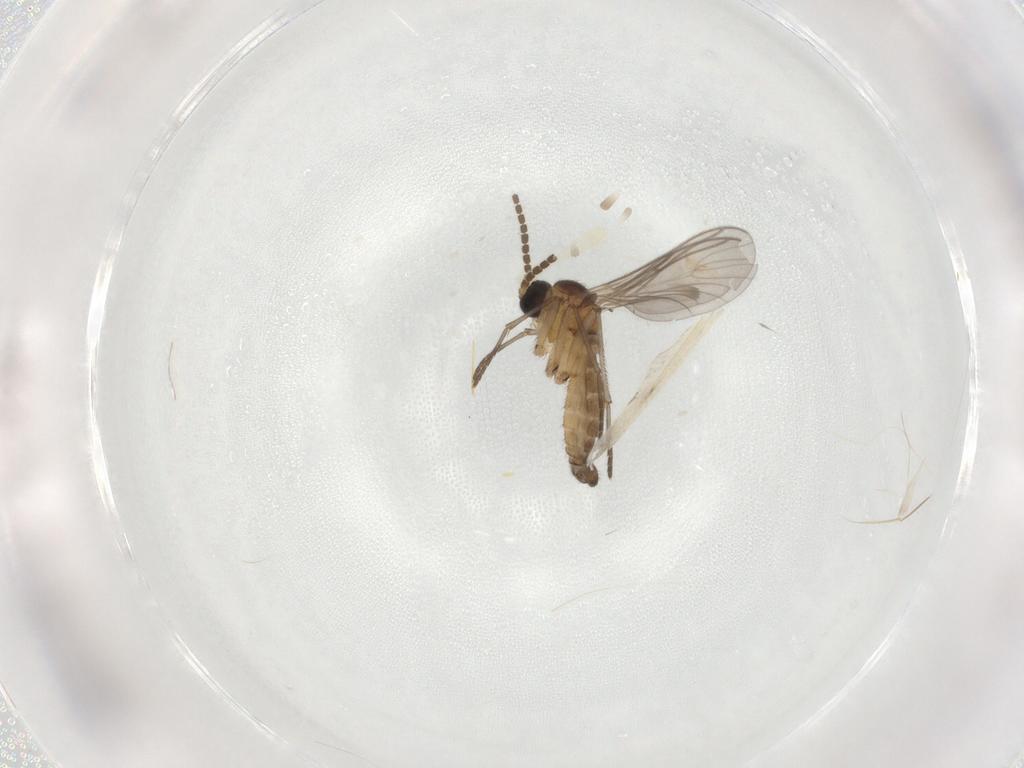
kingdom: Animalia
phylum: Arthropoda
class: Insecta
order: Diptera
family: Sciaridae
